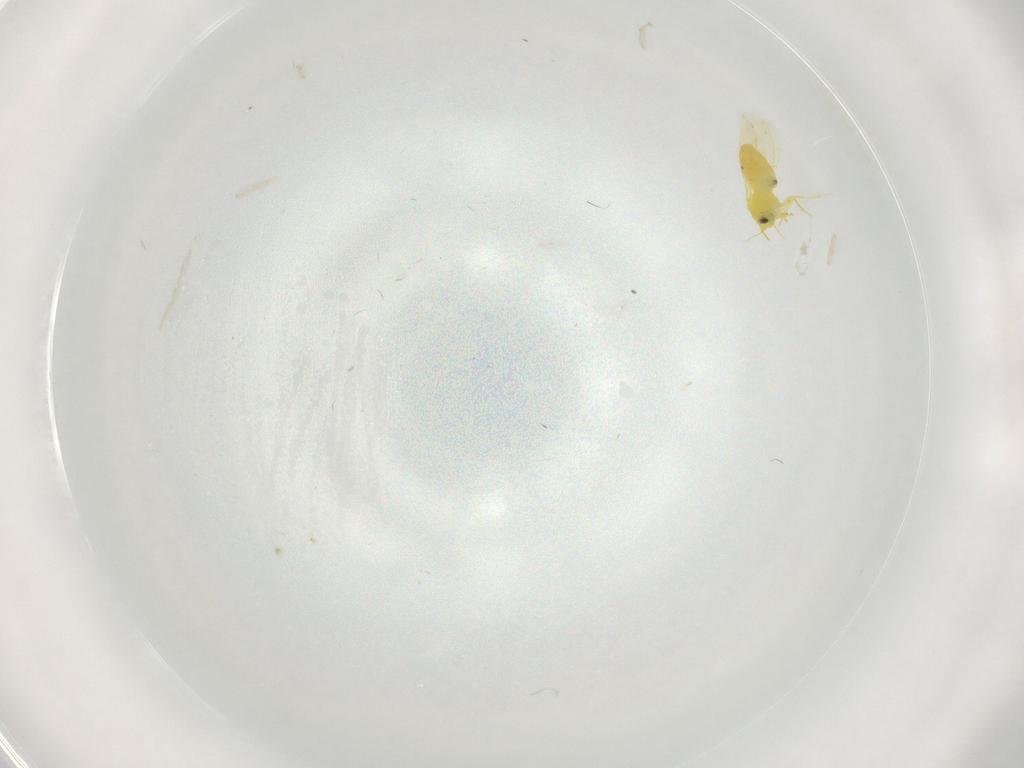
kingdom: Animalia
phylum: Arthropoda
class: Insecta
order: Hemiptera
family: Aleyrodidae
